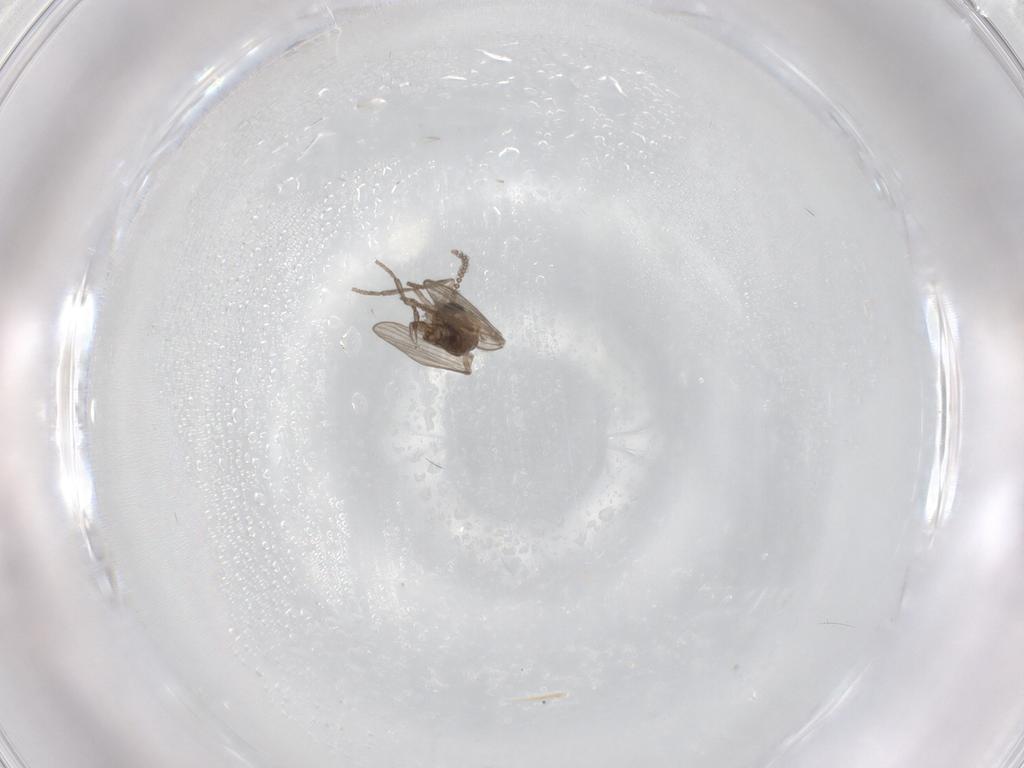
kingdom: Animalia
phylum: Arthropoda
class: Insecta
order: Diptera
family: Psychodidae
